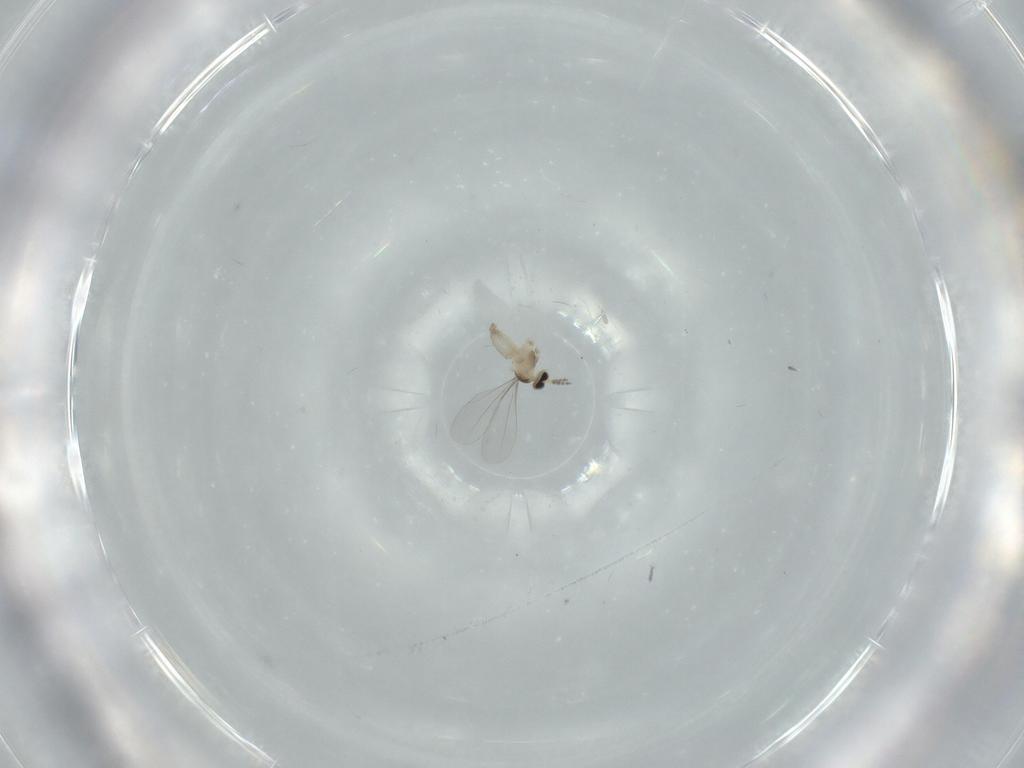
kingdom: Animalia
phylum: Arthropoda
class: Insecta
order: Diptera
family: Cecidomyiidae
